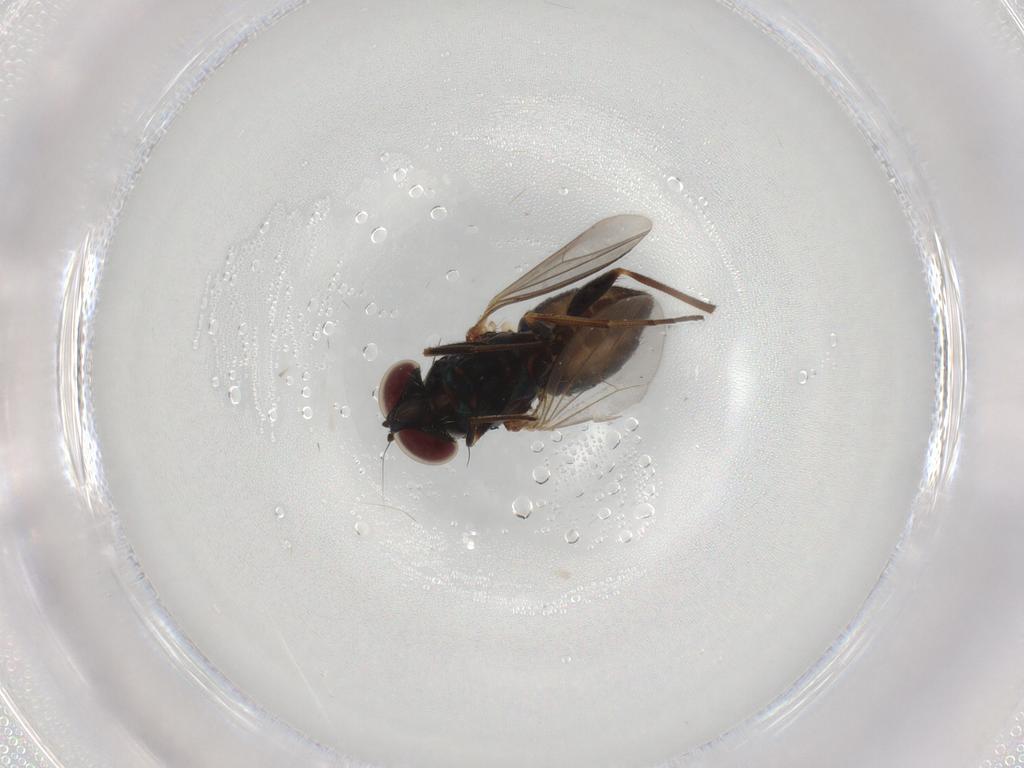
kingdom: Animalia
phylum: Arthropoda
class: Insecta
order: Diptera
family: Dolichopodidae
